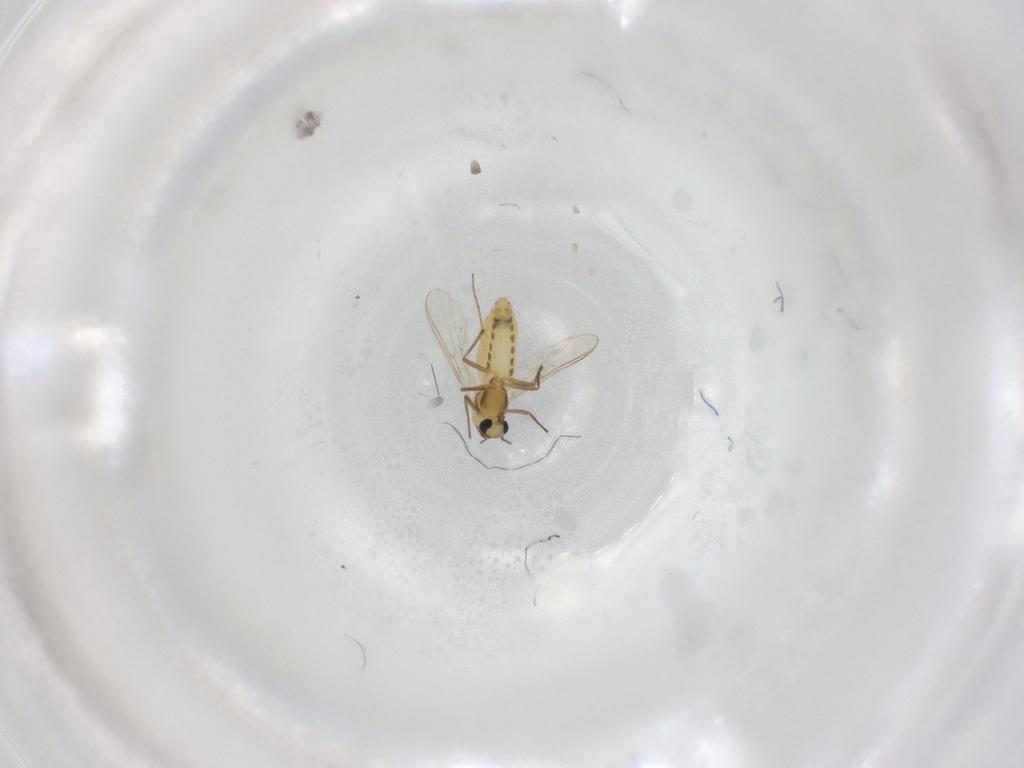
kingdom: Animalia
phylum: Arthropoda
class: Insecta
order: Diptera
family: Chironomidae
